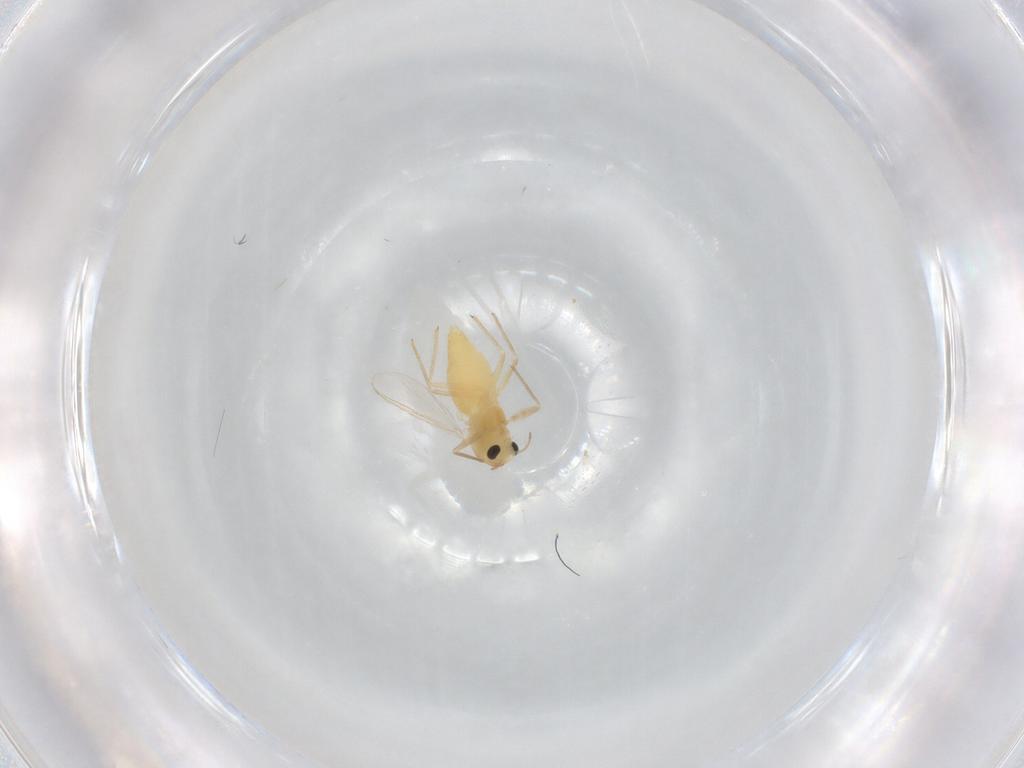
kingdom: Animalia
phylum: Arthropoda
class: Insecta
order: Diptera
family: Chironomidae
